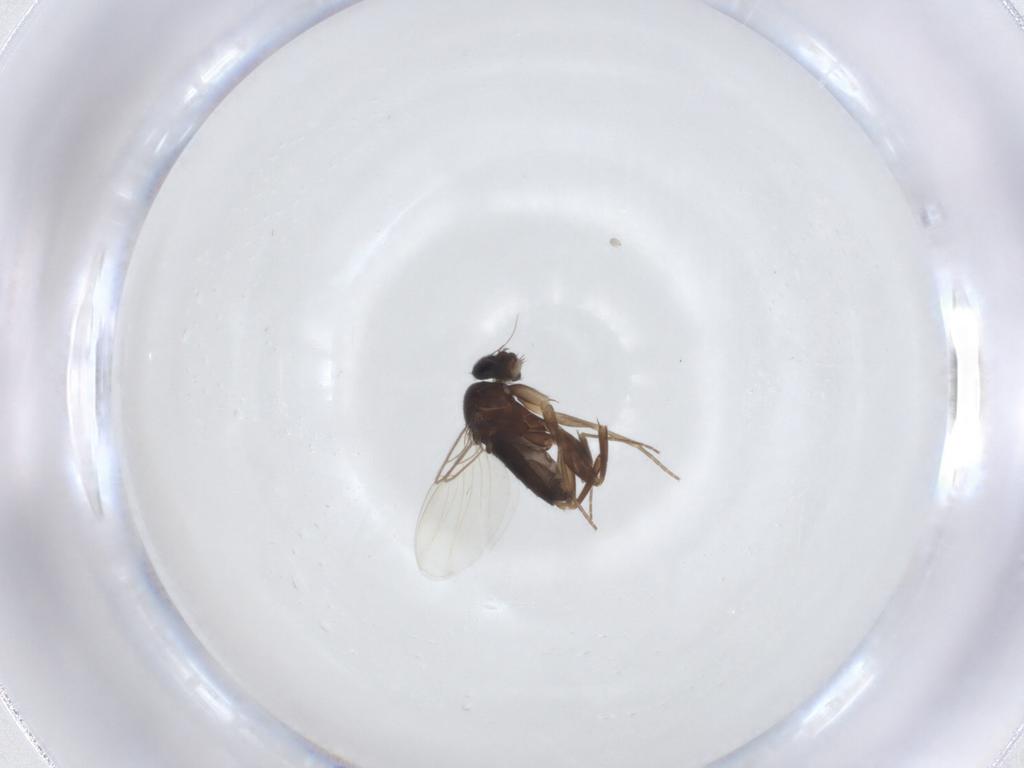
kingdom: Animalia
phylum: Arthropoda
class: Insecta
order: Diptera
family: Phoridae
